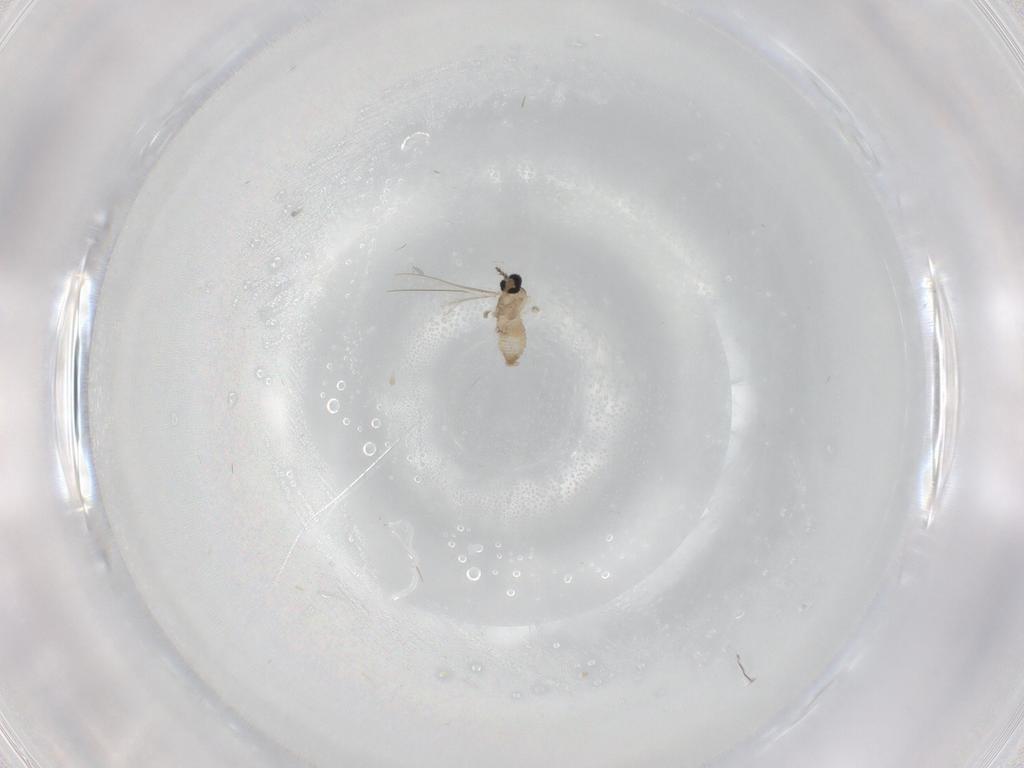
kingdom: Animalia
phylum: Arthropoda
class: Insecta
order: Diptera
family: Cecidomyiidae
